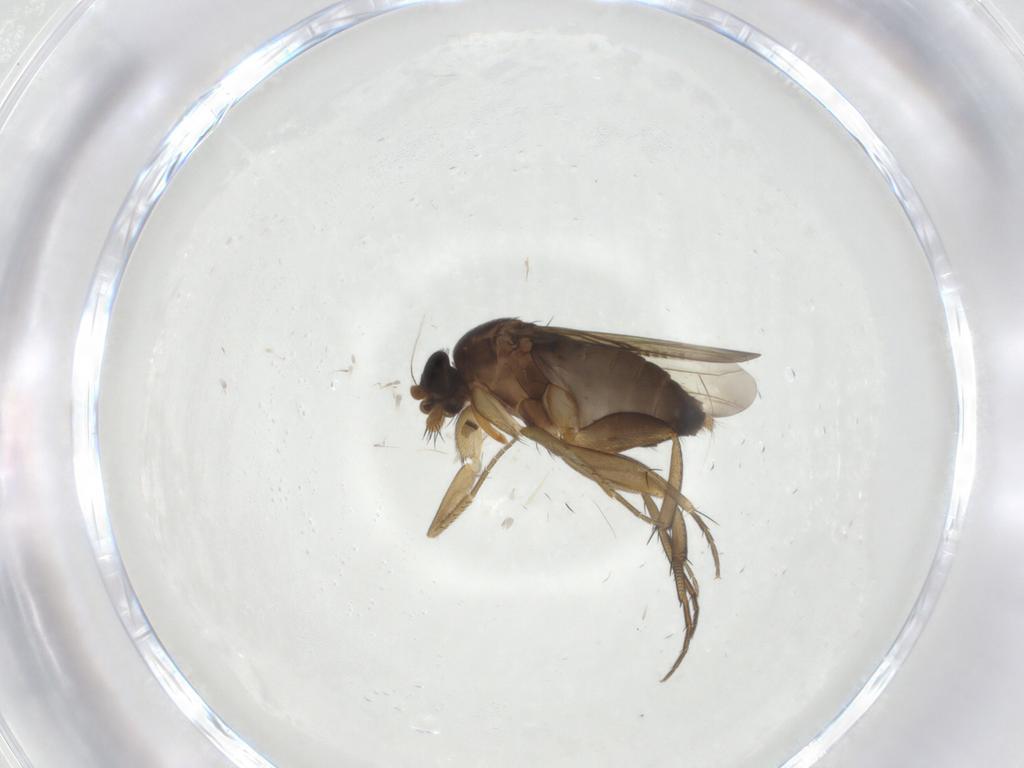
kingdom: Animalia
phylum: Arthropoda
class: Insecta
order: Diptera
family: Phoridae
